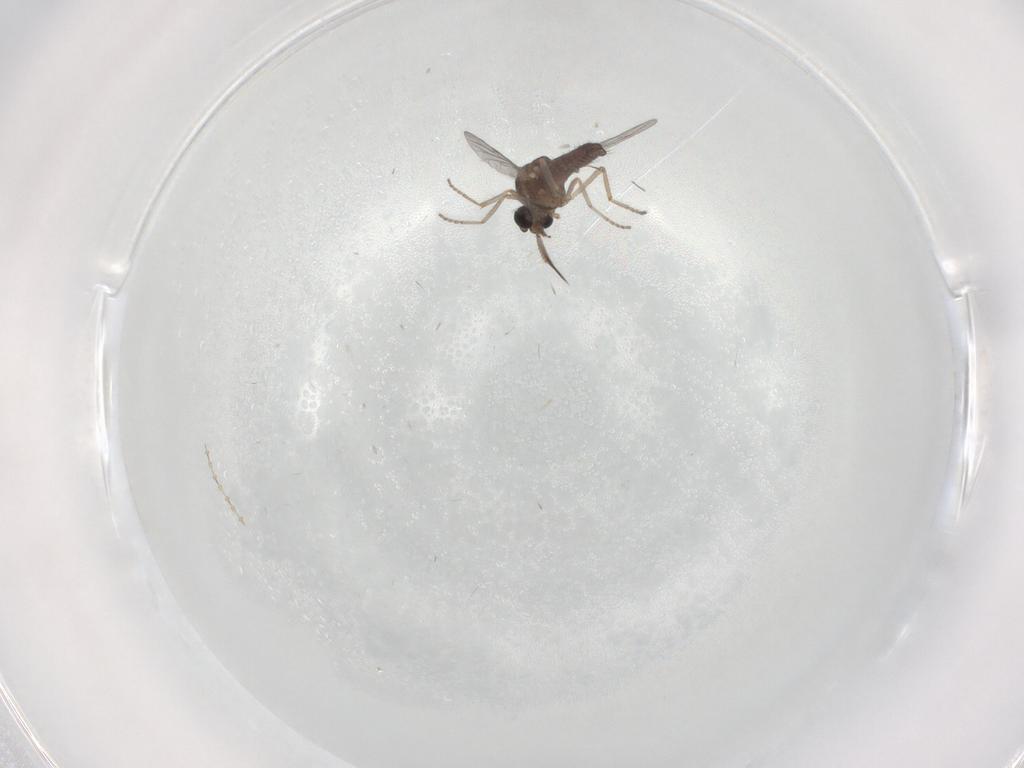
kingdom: Animalia
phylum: Arthropoda
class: Insecta
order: Diptera
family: Ceratopogonidae
